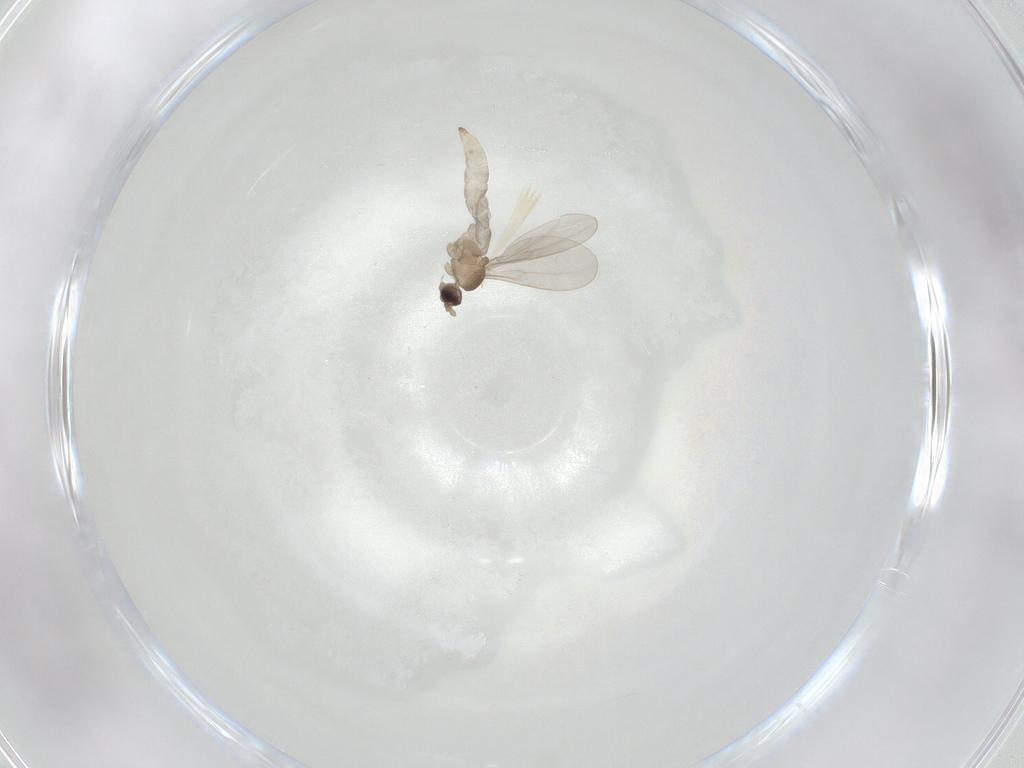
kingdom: Animalia
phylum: Arthropoda
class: Insecta
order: Diptera
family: Cecidomyiidae
